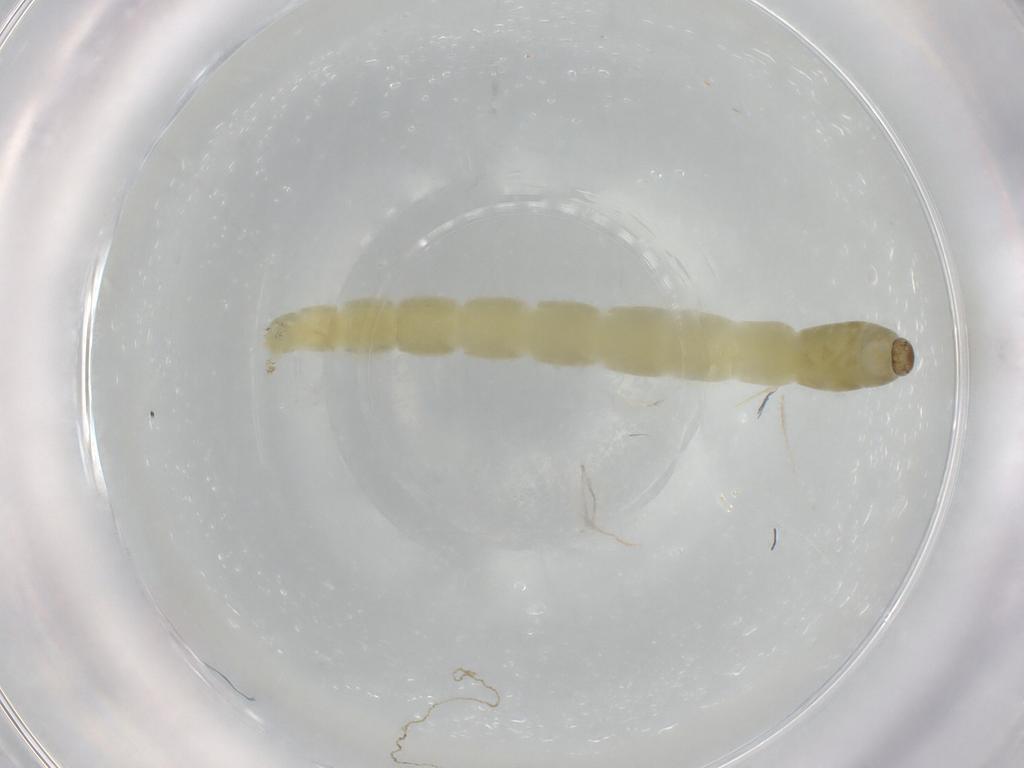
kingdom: Animalia
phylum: Arthropoda
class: Insecta
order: Diptera
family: Chironomidae
